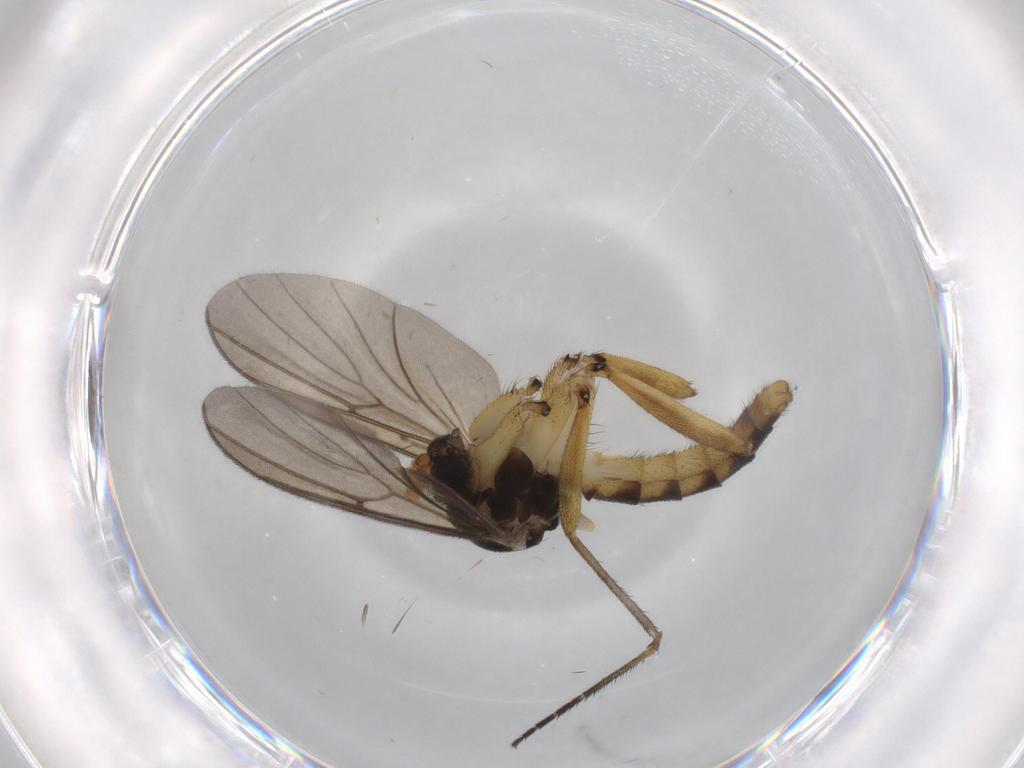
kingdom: Animalia
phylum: Arthropoda
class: Insecta
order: Diptera
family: Chironomidae
